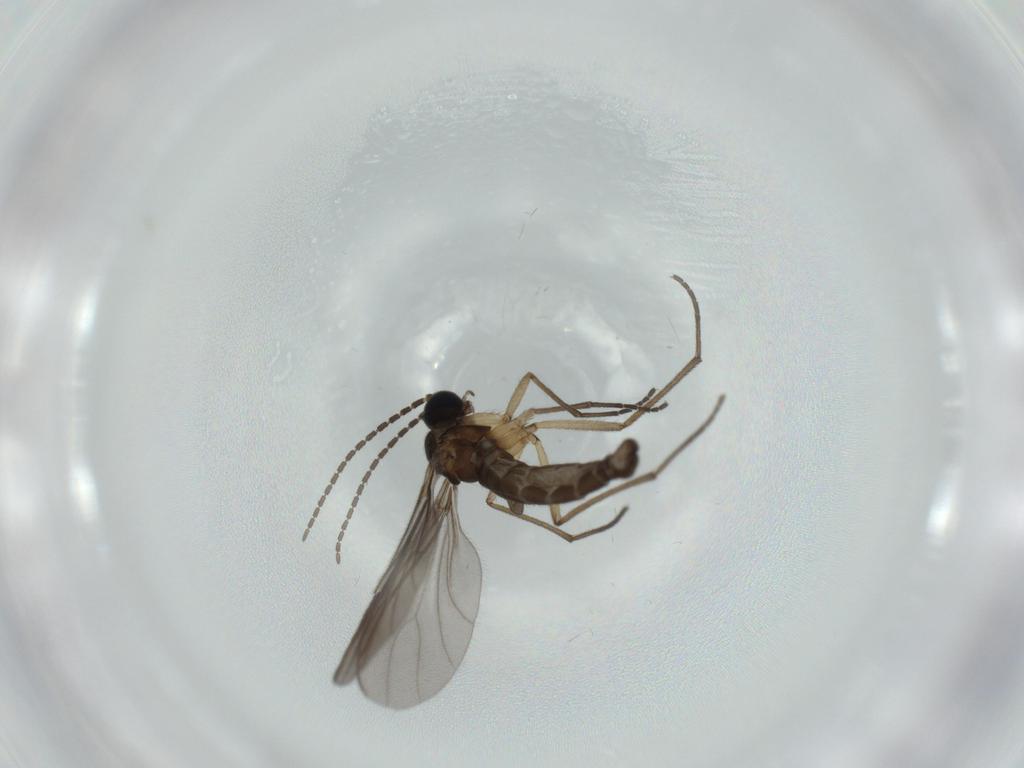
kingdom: Animalia
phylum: Arthropoda
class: Insecta
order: Diptera
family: Sciaridae
